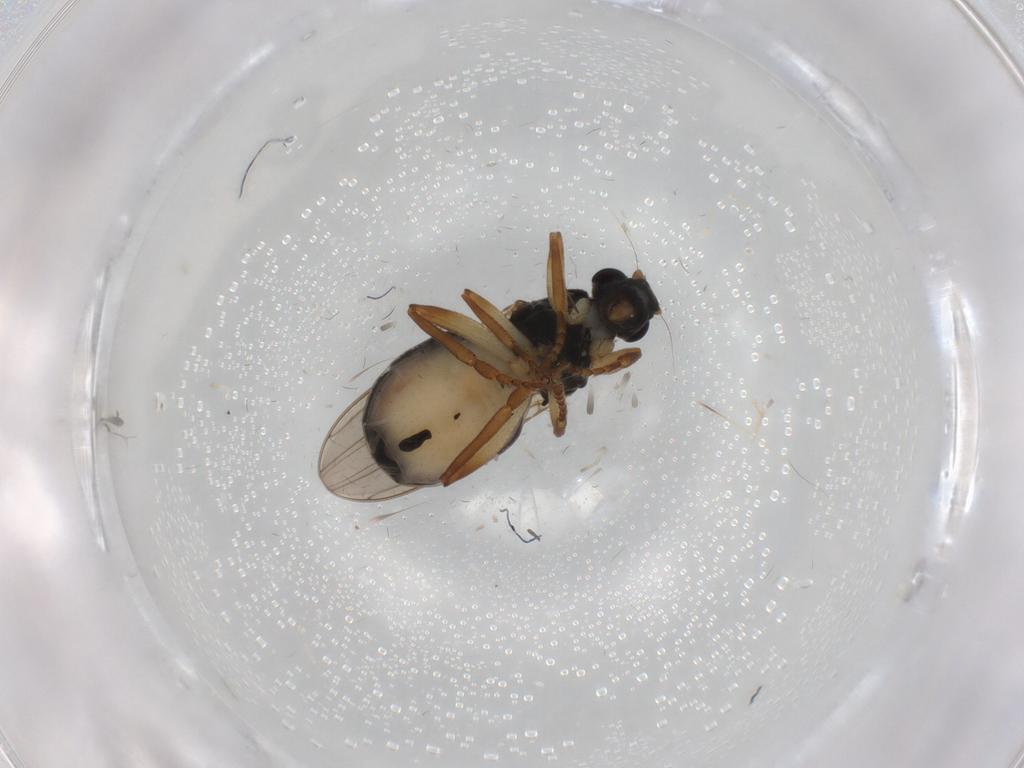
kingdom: Animalia
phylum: Arthropoda
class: Insecta
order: Diptera
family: Sphaeroceridae
